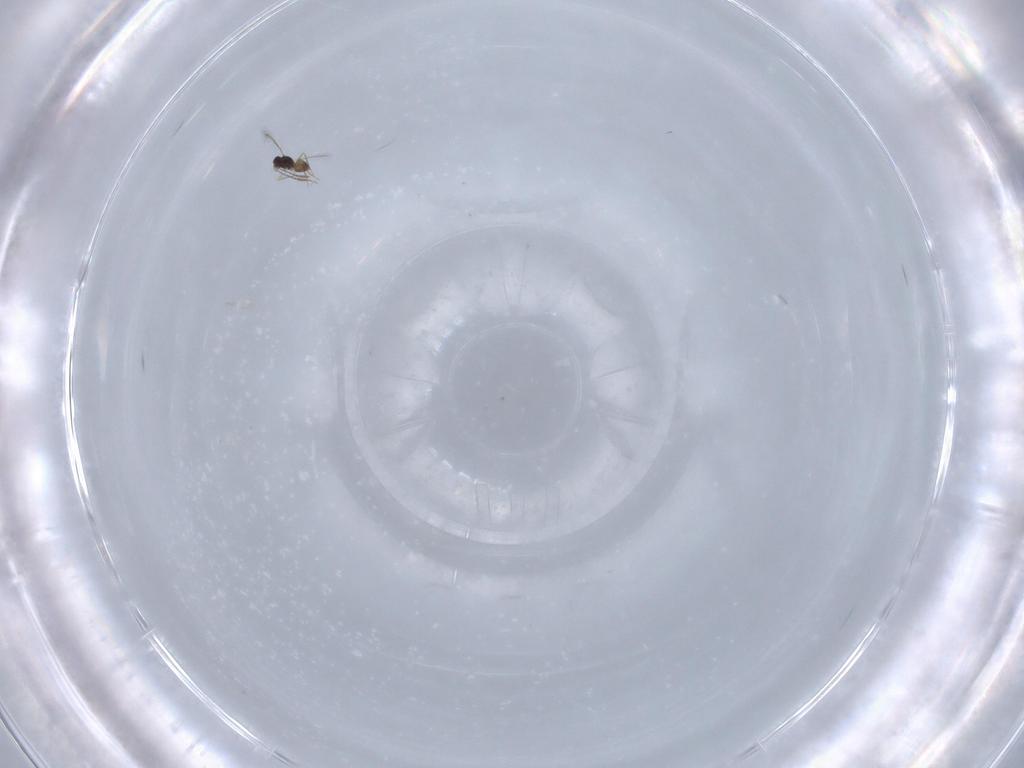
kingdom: Animalia
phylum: Arthropoda
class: Insecta
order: Hymenoptera
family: Mymaridae
